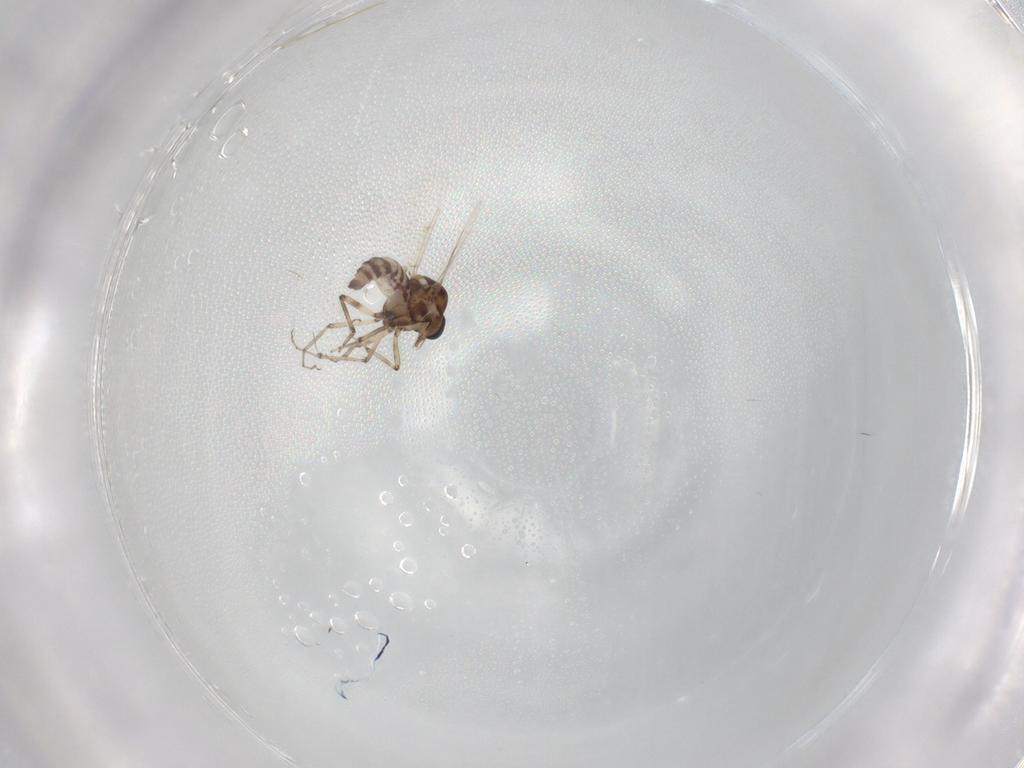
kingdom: Animalia
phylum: Arthropoda
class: Insecta
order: Diptera
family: Ceratopogonidae
